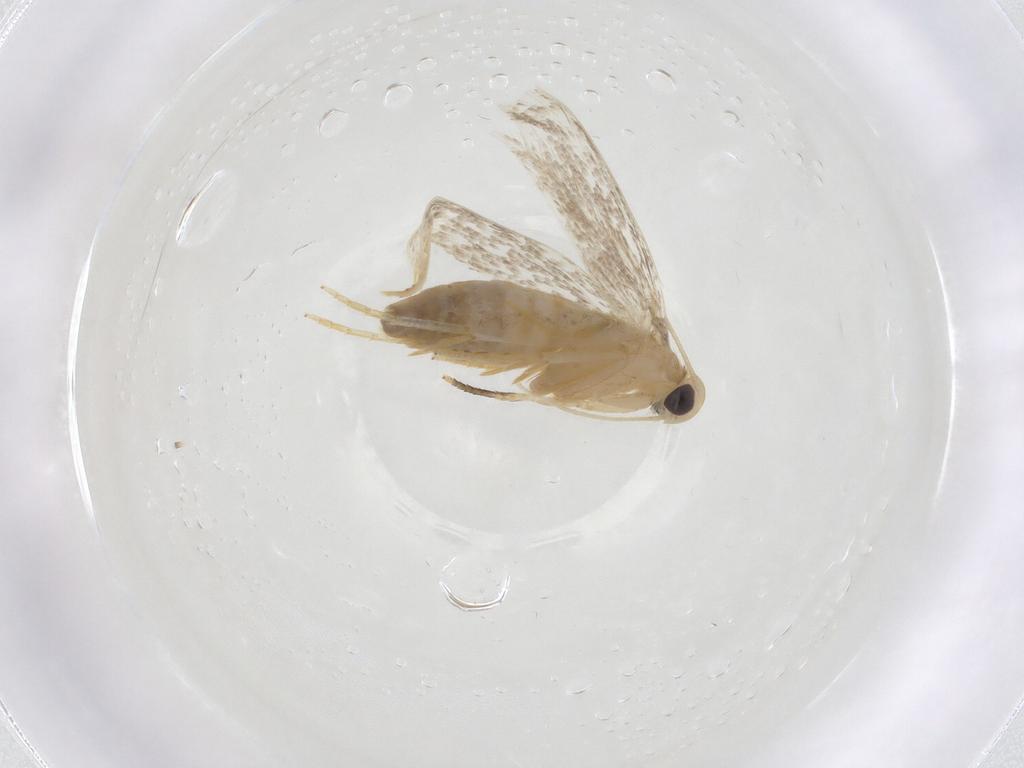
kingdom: Animalia
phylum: Arthropoda
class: Insecta
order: Lepidoptera
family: Erebidae
